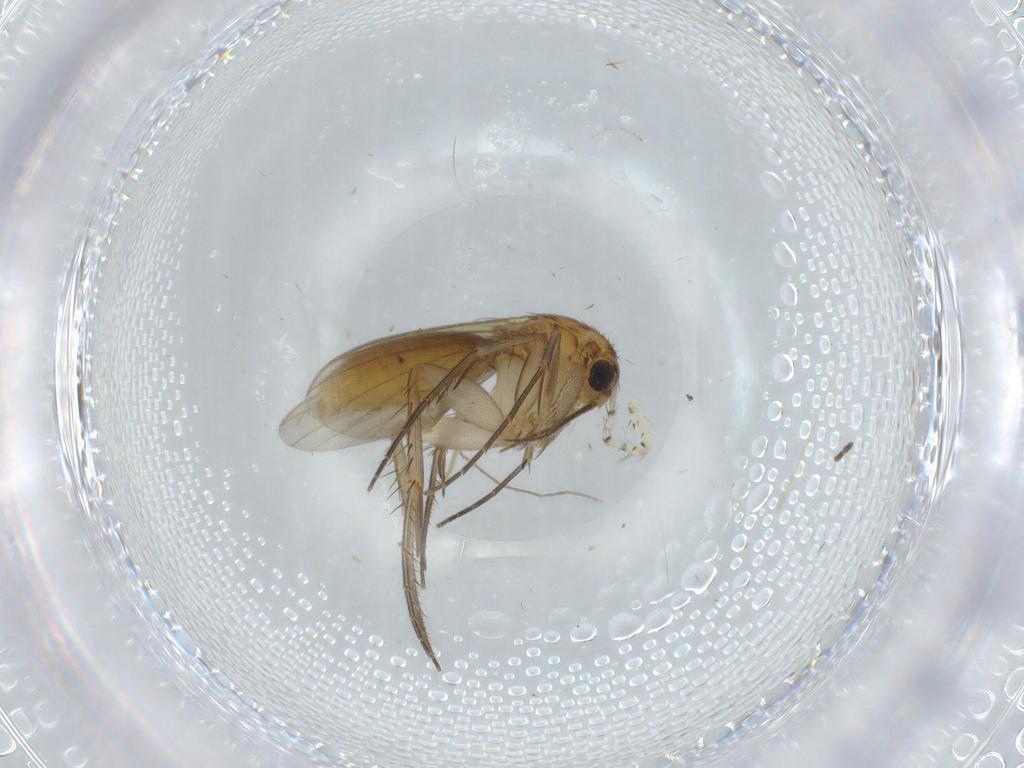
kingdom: Animalia
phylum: Arthropoda
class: Insecta
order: Diptera
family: Mycetophilidae
